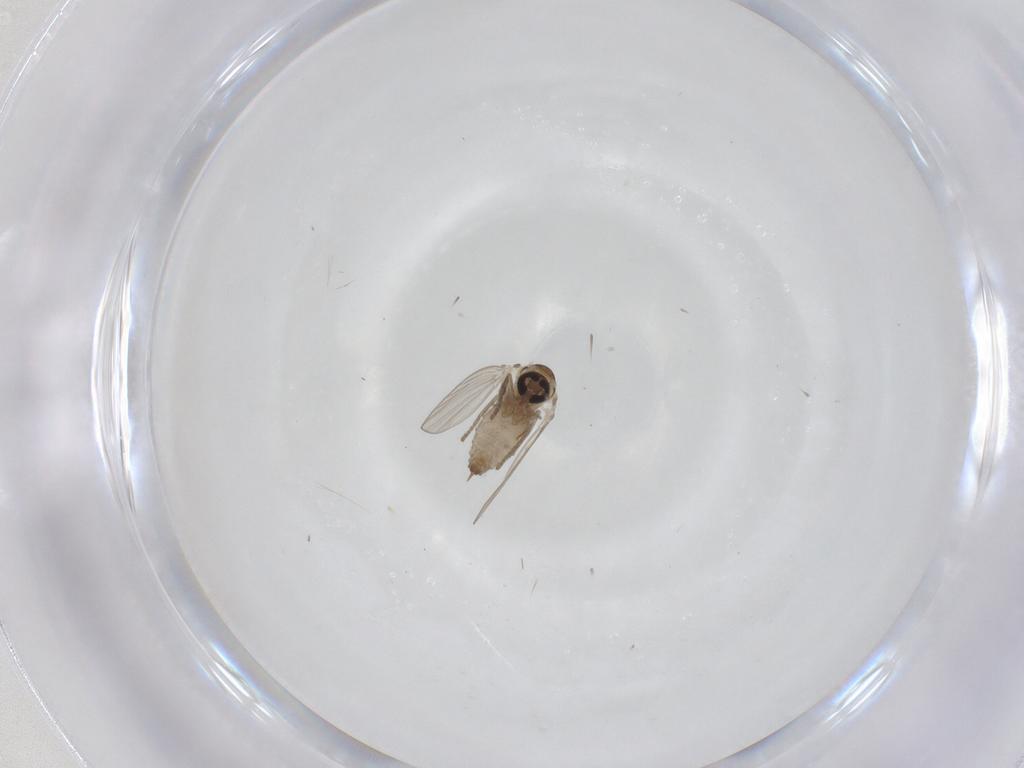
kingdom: Animalia
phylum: Arthropoda
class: Insecta
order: Diptera
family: Psychodidae
